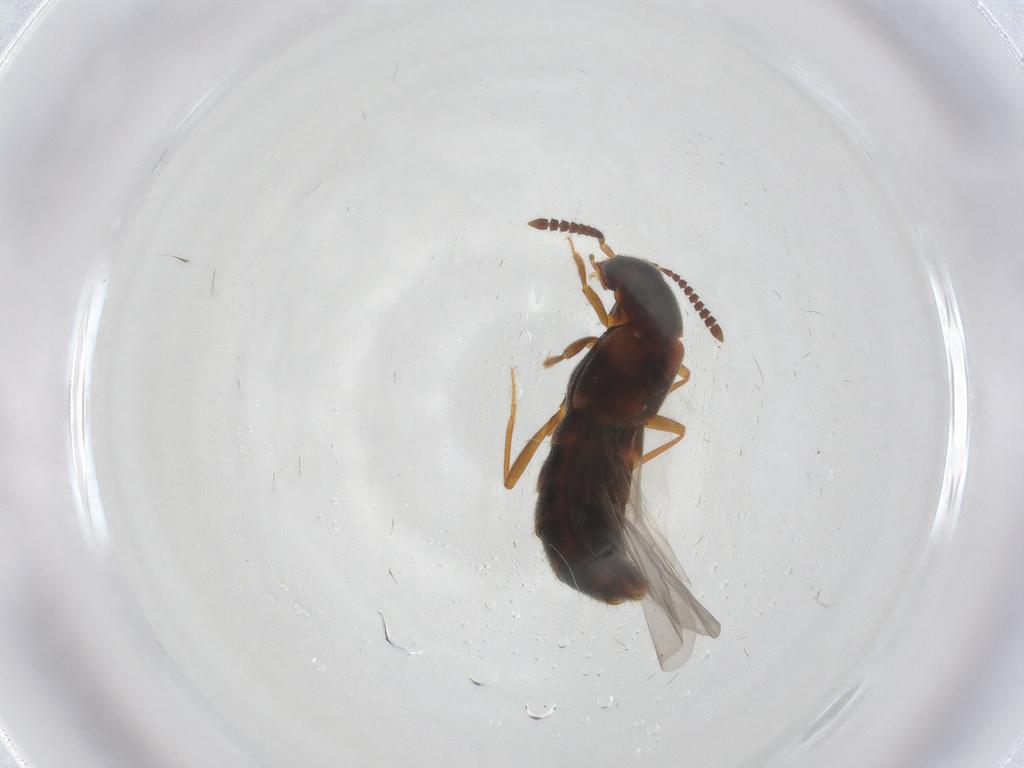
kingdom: Animalia
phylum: Arthropoda
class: Insecta
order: Coleoptera
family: Staphylinidae
